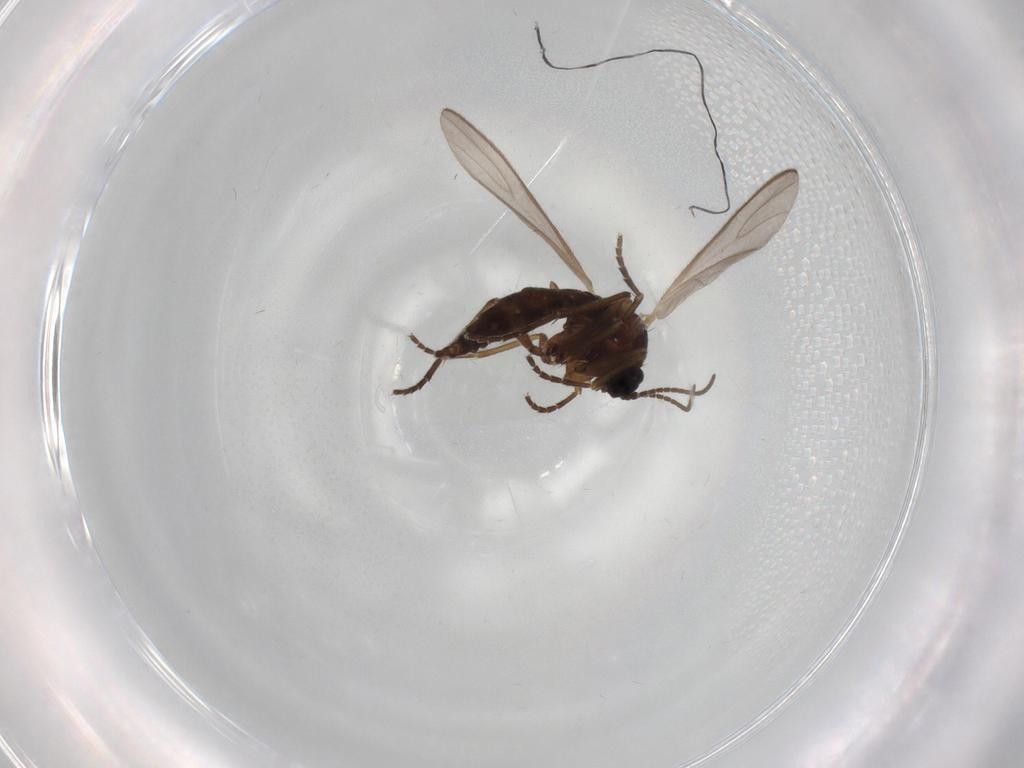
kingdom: Animalia
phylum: Arthropoda
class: Insecta
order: Diptera
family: Sciaridae
